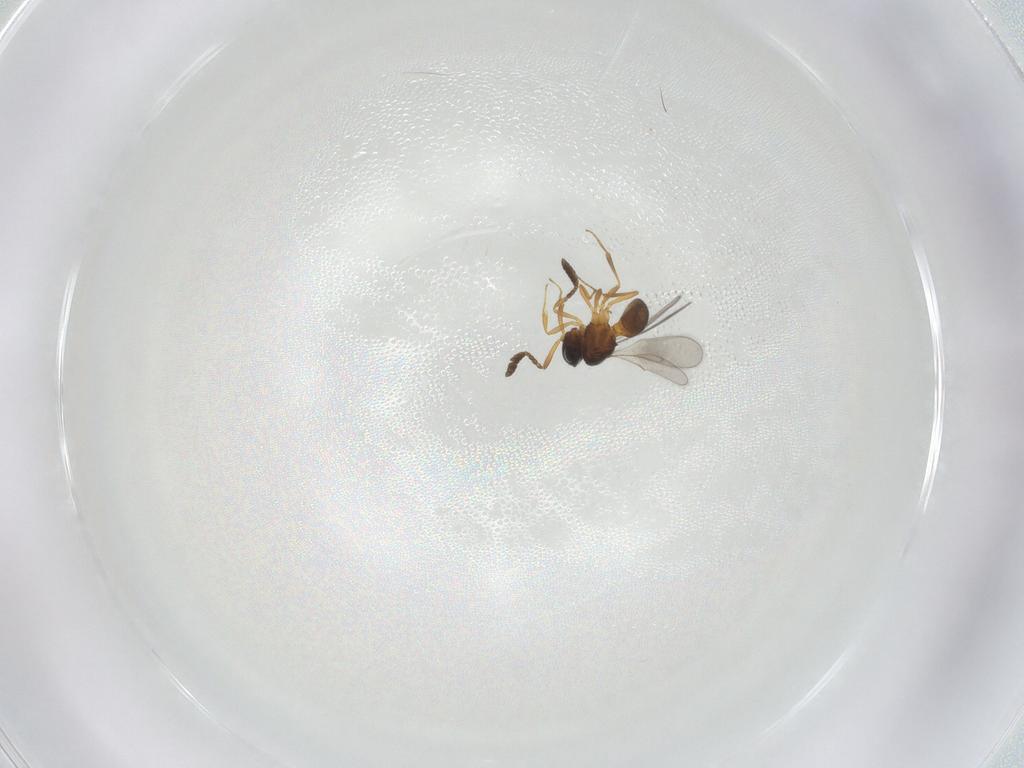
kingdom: Animalia
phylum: Arthropoda
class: Insecta
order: Hymenoptera
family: Scelionidae
